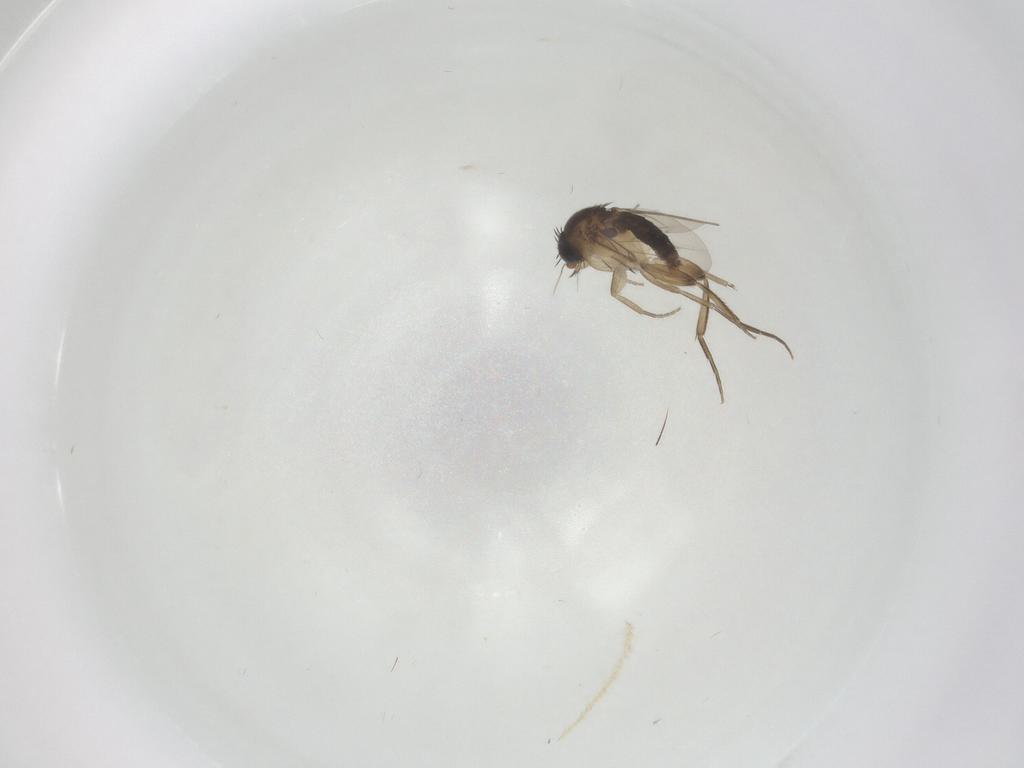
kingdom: Animalia
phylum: Arthropoda
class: Insecta
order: Diptera
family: Phoridae
